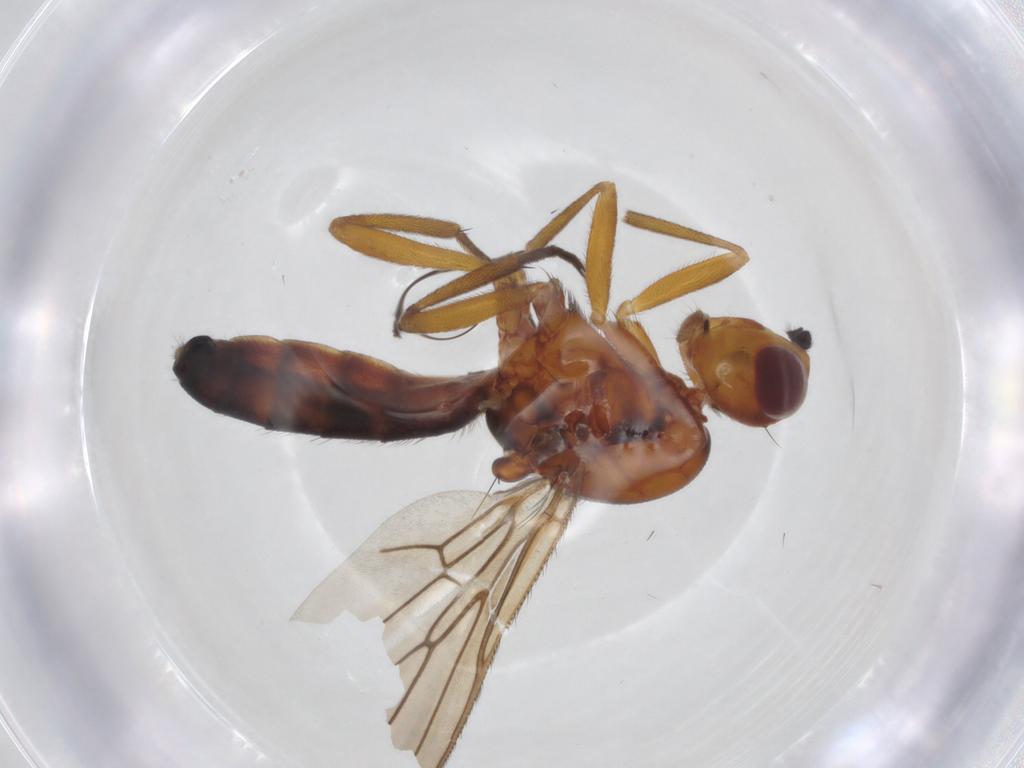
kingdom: Animalia
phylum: Arthropoda
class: Insecta
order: Diptera
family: Psilidae
